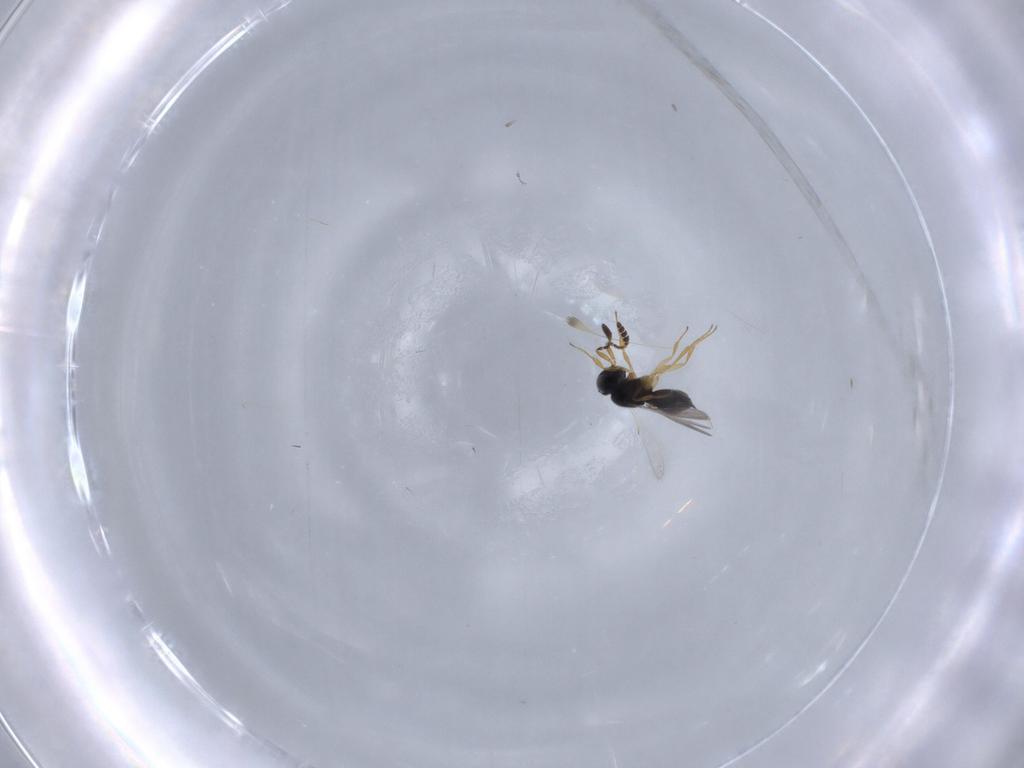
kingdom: Animalia
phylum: Arthropoda
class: Insecta
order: Hymenoptera
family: Scelionidae
